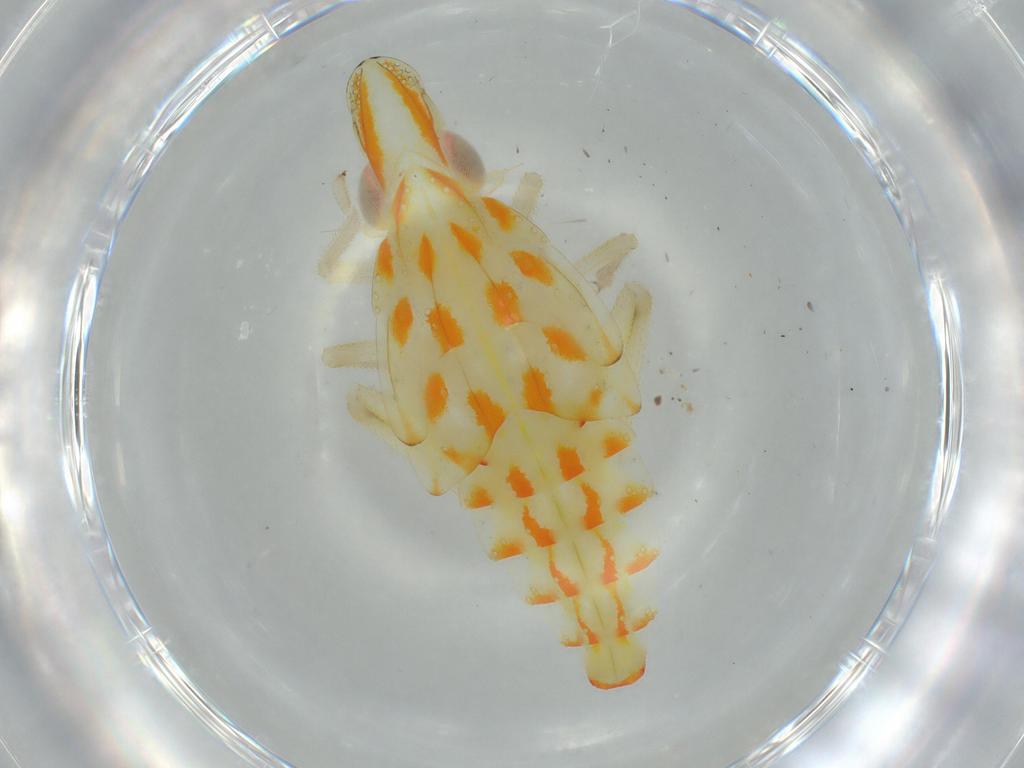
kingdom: Animalia
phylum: Arthropoda
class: Insecta
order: Hemiptera
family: Tropiduchidae
